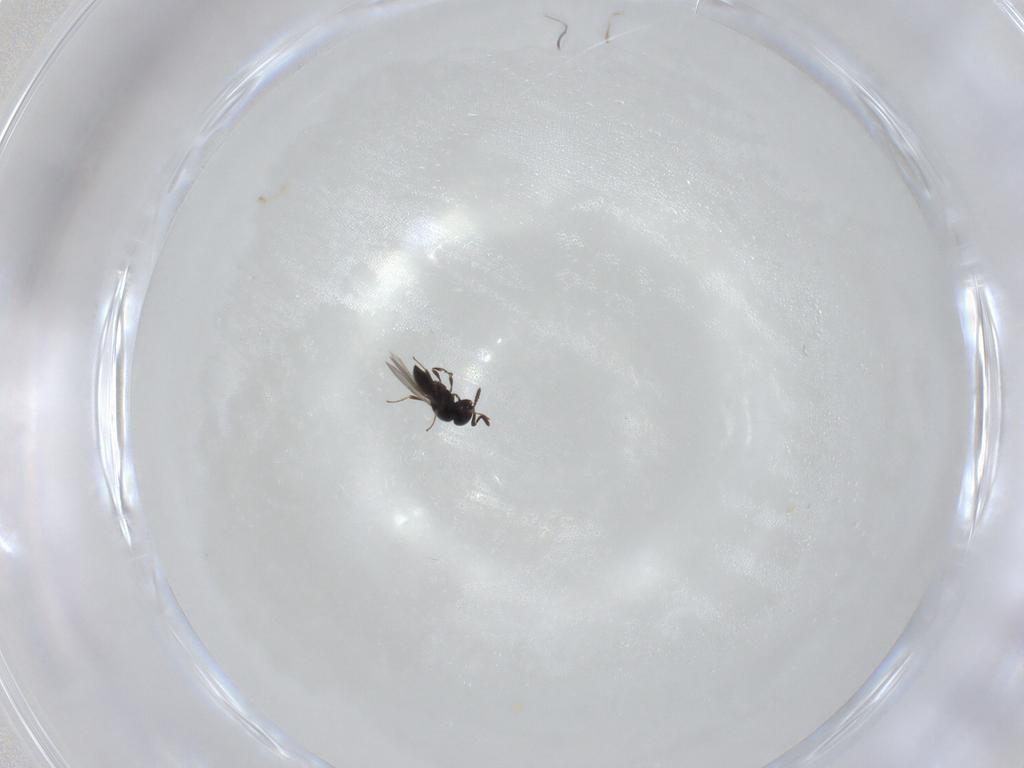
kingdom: Animalia
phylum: Arthropoda
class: Insecta
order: Hymenoptera
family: Scelionidae
